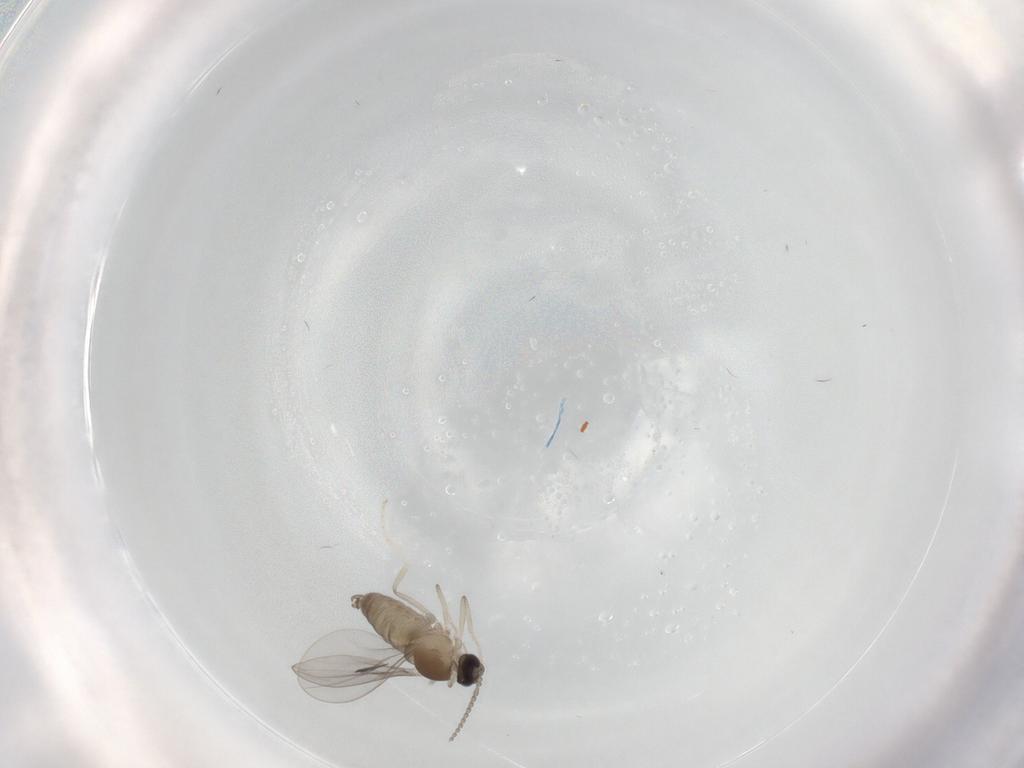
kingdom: Animalia
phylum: Arthropoda
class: Insecta
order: Diptera
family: Cecidomyiidae
